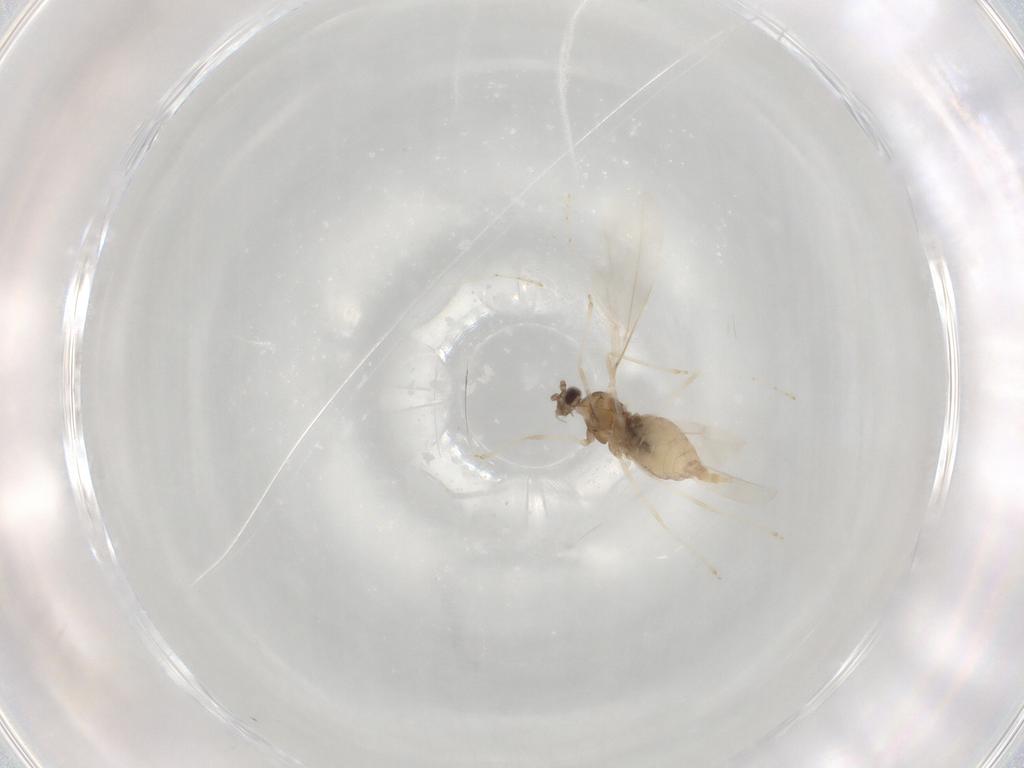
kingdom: Animalia
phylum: Arthropoda
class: Insecta
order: Diptera
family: Cecidomyiidae
